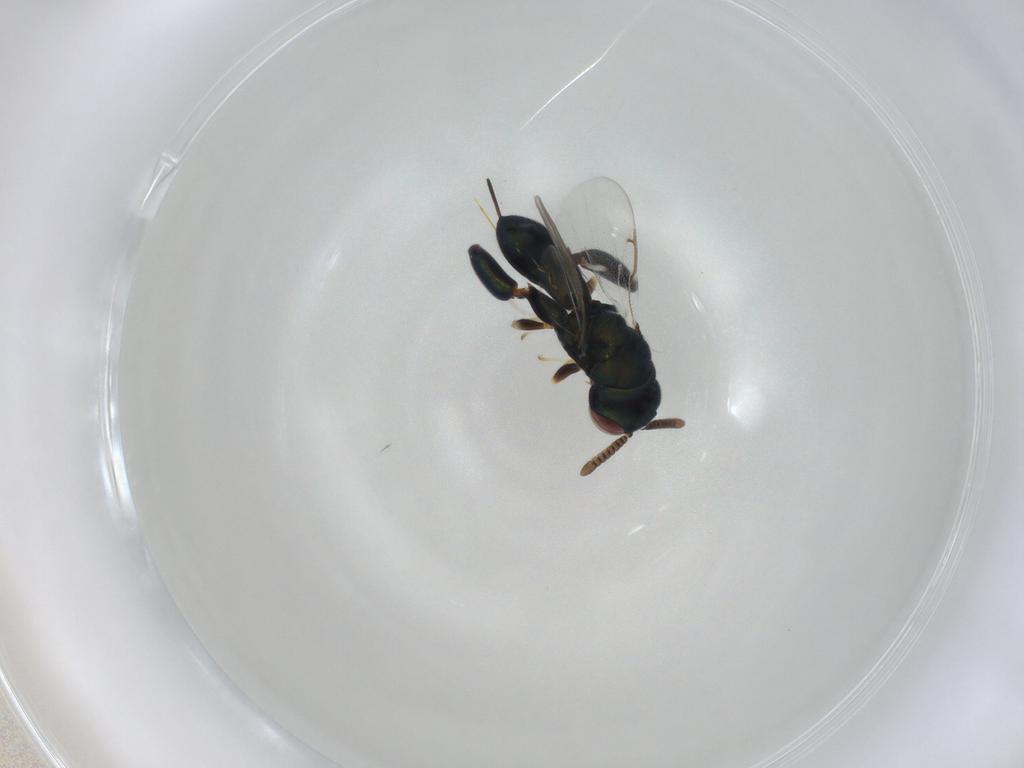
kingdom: Animalia
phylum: Arthropoda
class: Insecta
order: Hymenoptera
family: Torymidae
